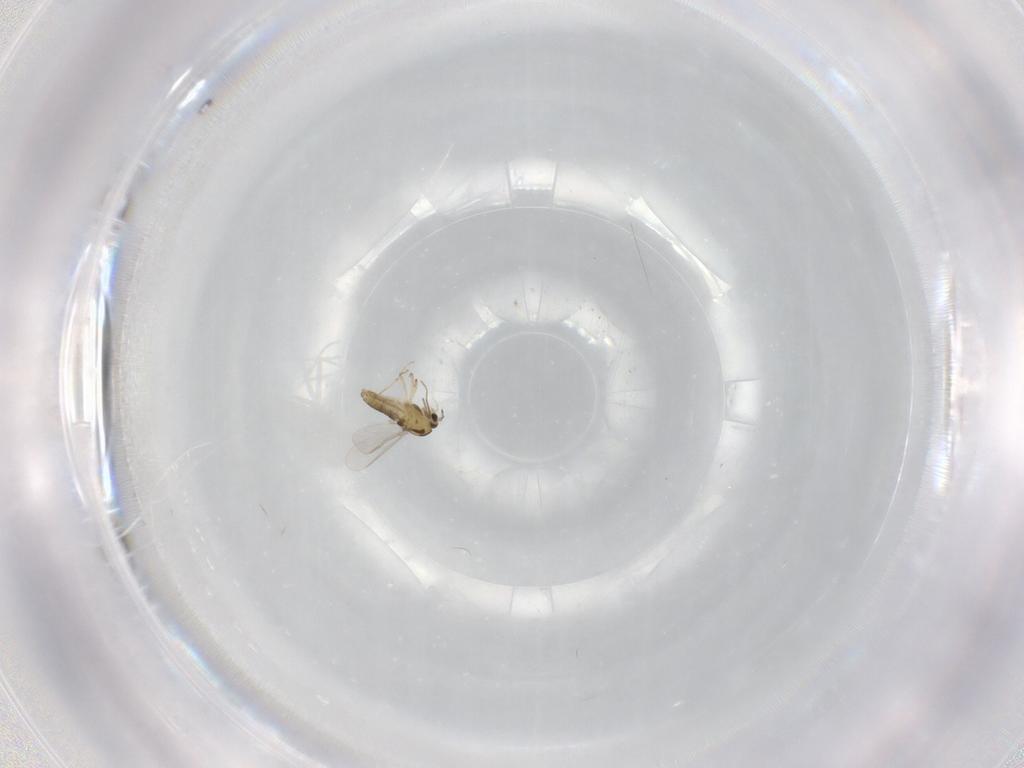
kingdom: Animalia
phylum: Arthropoda
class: Insecta
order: Diptera
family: Chironomidae
